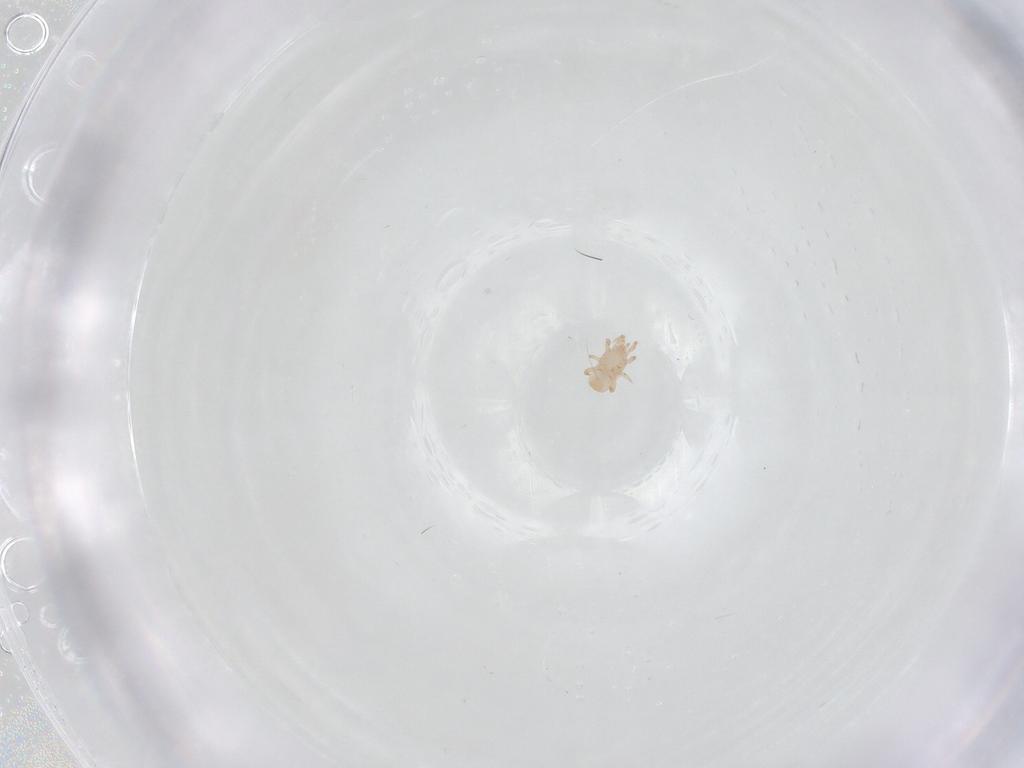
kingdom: Animalia
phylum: Arthropoda
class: Arachnida
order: Mesostigmata
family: Digamasellidae
